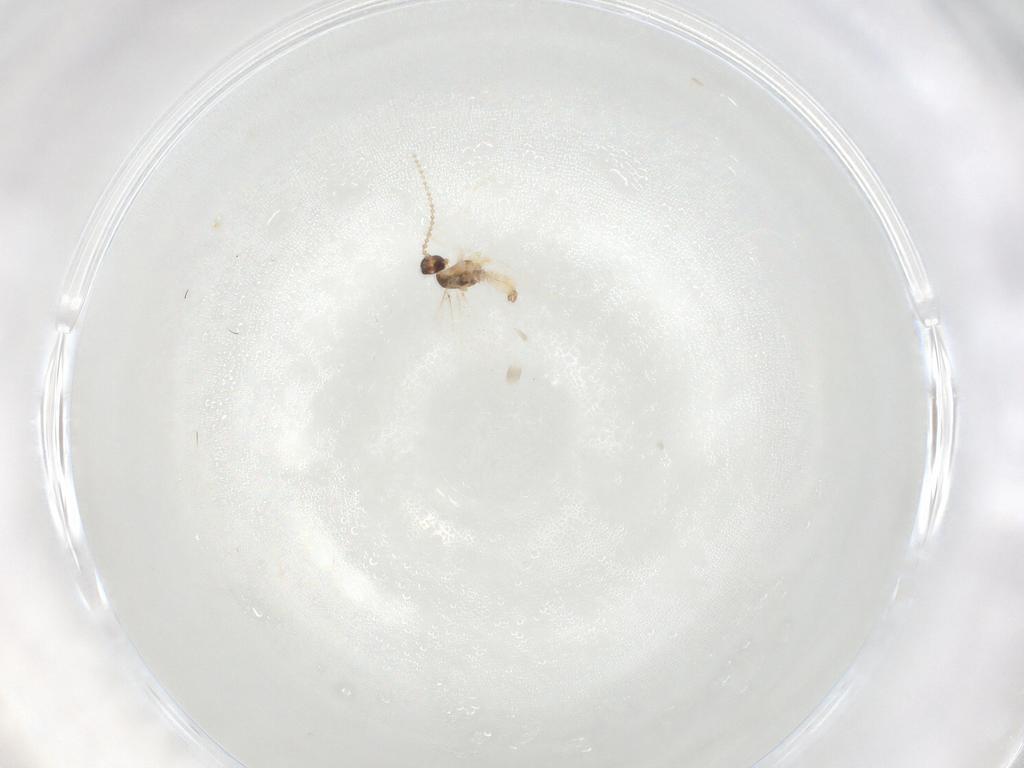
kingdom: Animalia
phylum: Arthropoda
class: Insecta
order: Diptera
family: Cecidomyiidae
